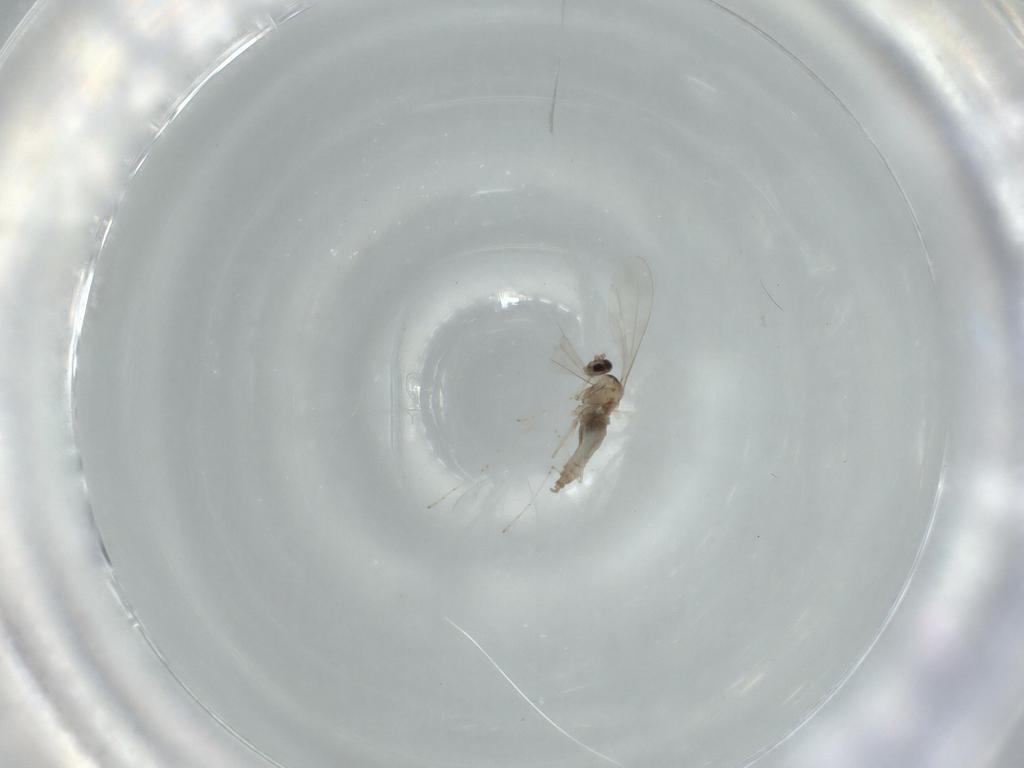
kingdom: Animalia
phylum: Arthropoda
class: Insecta
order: Diptera
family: Cecidomyiidae
